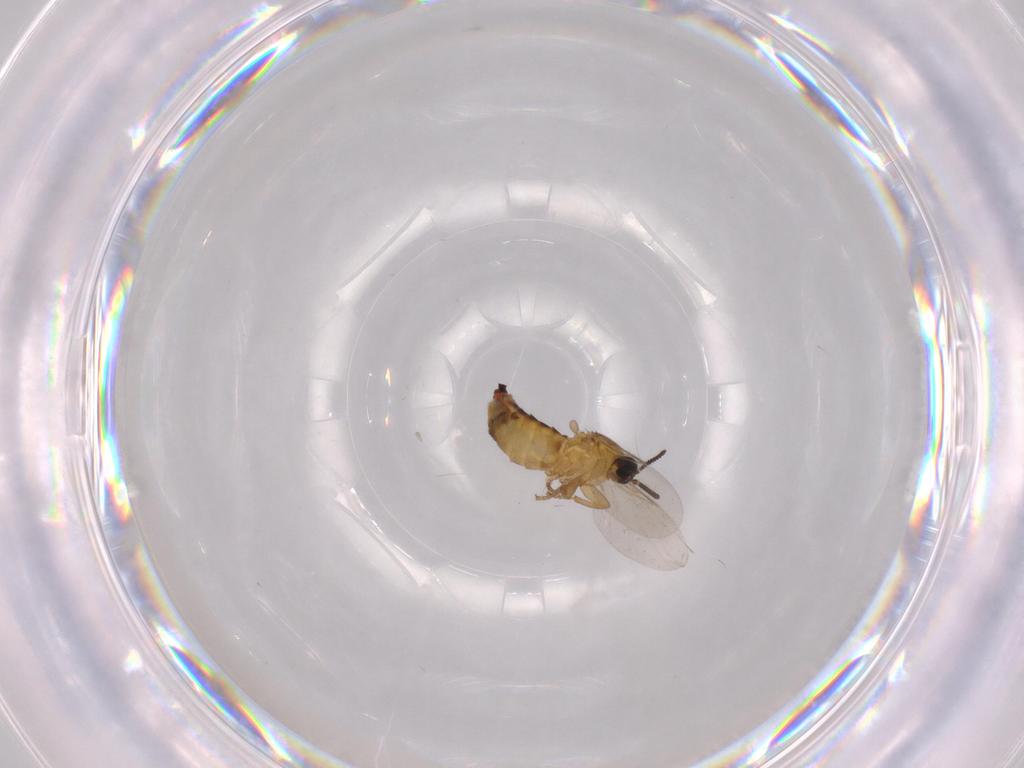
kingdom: Animalia
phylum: Arthropoda
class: Insecta
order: Diptera
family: Scatopsidae
